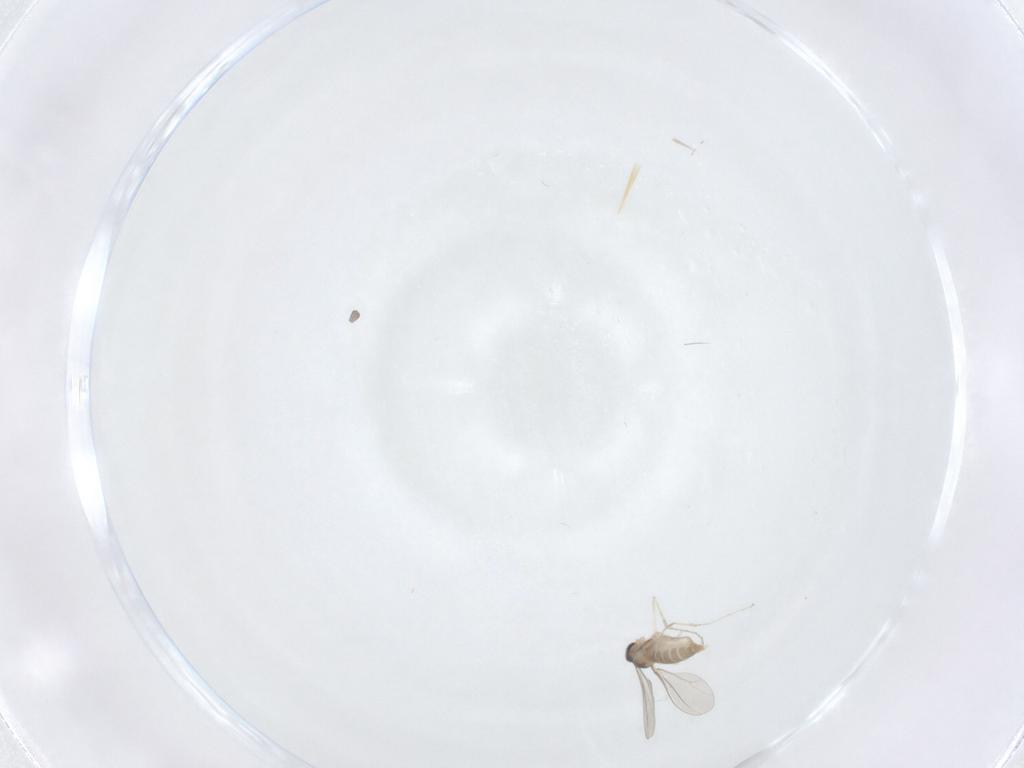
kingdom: Animalia
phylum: Arthropoda
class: Insecta
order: Diptera
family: Cecidomyiidae
